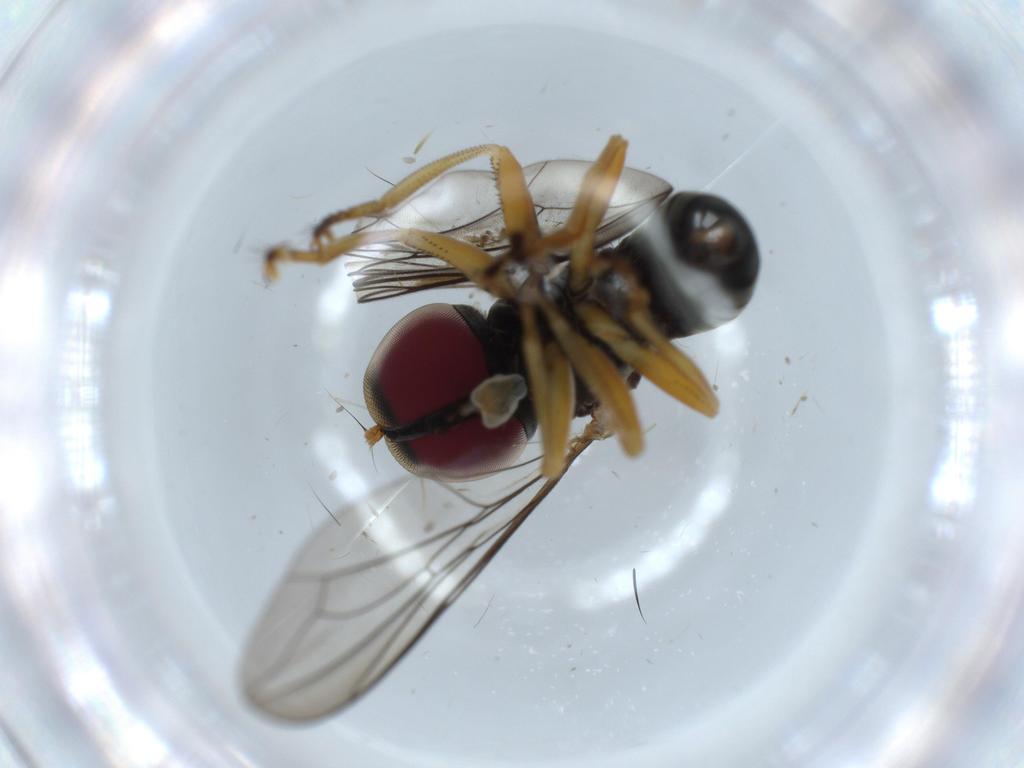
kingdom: Animalia
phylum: Arthropoda
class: Insecta
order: Diptera
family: Pipunculidae
